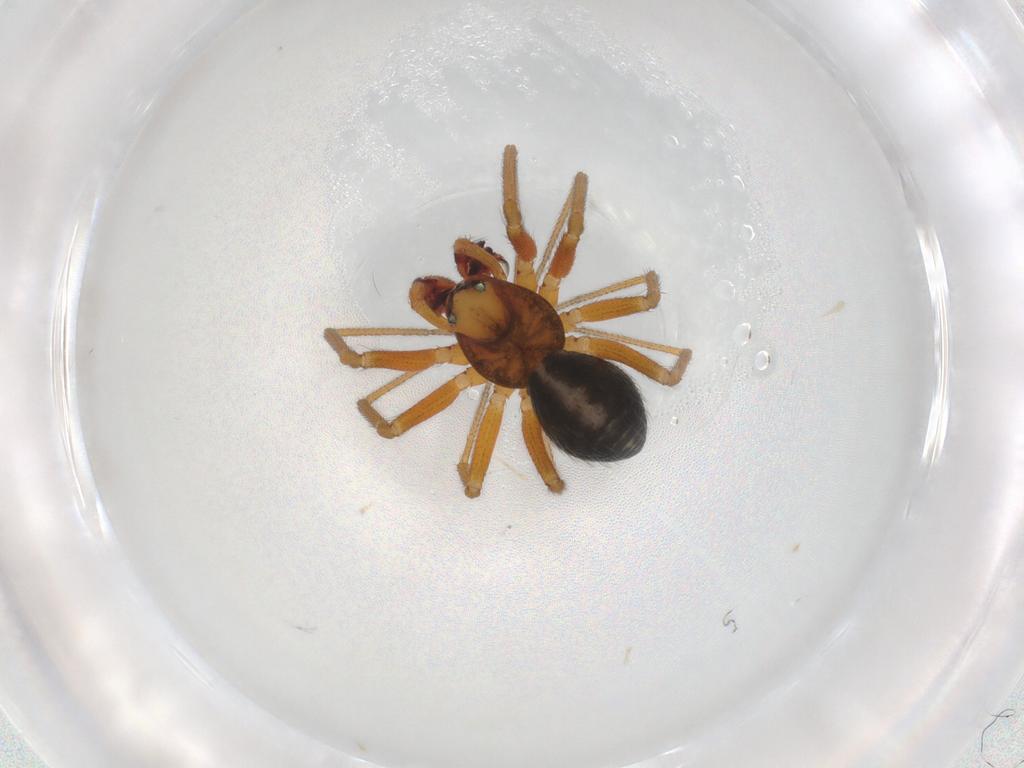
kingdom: Animalia
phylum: Arthropoda
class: Arachnida
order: Araneae
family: Linyphiidae
